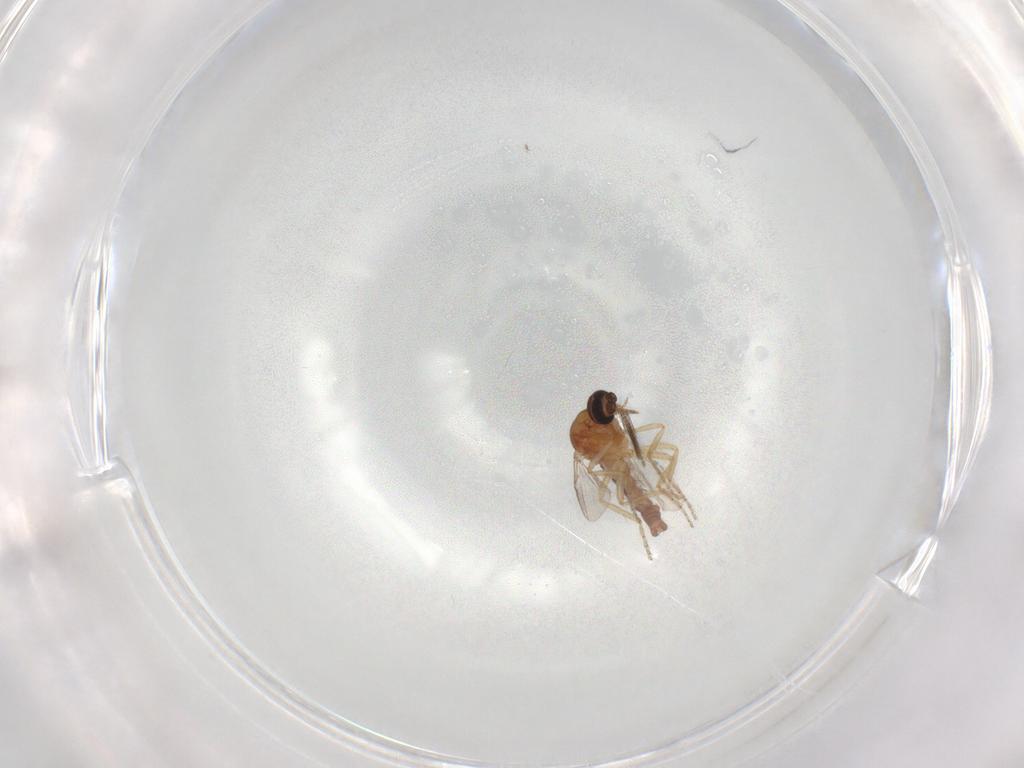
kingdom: Animalia
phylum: Arthropoda
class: Insecta
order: Diptera
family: Ceratopogonidae
